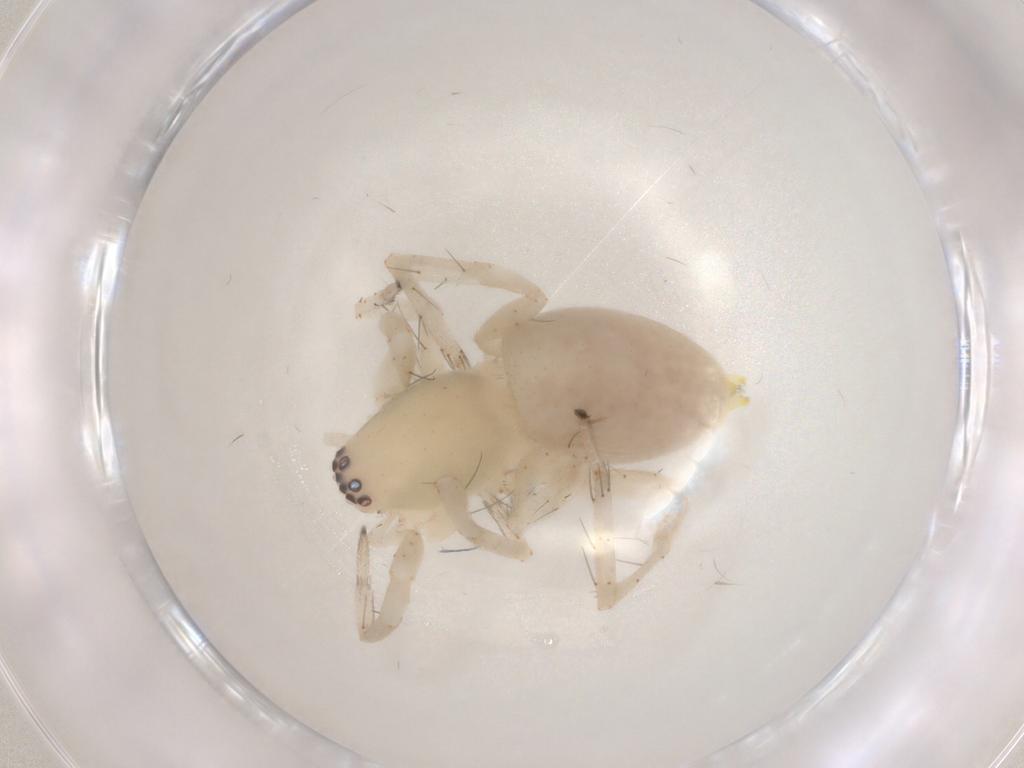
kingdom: Animalia
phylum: Arthropoda
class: Arachnida
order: Araneae
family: Clubionidae
